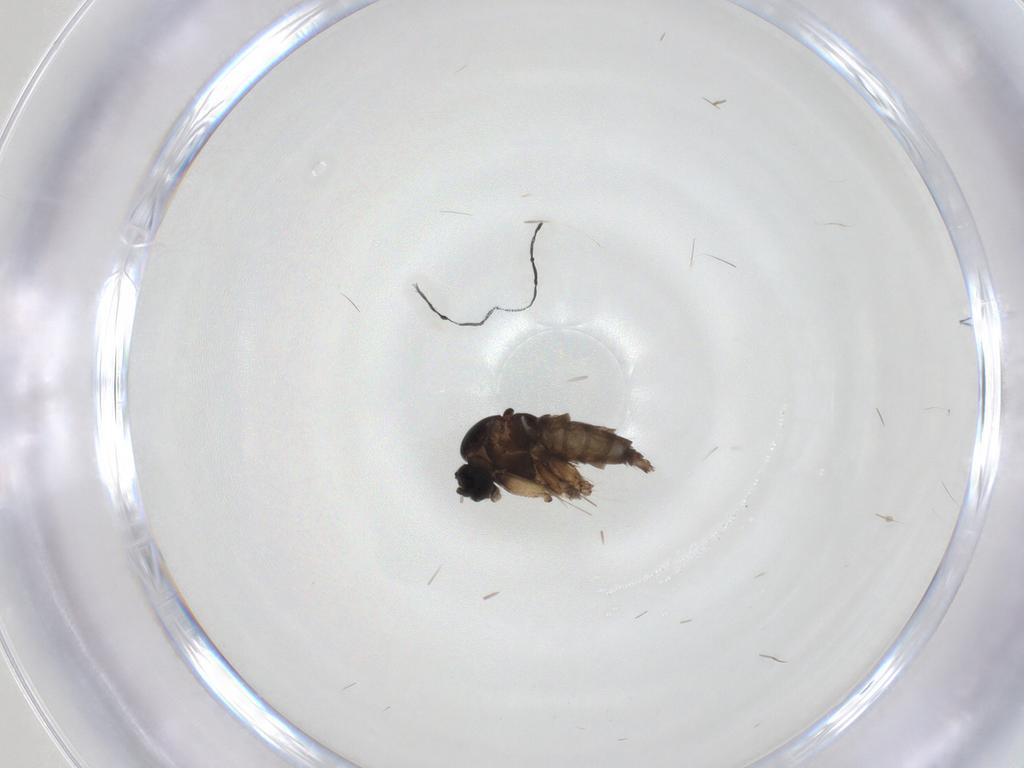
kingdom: Animalia
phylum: Arthropoda
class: Insecta
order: Diptera
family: Sciaridae
